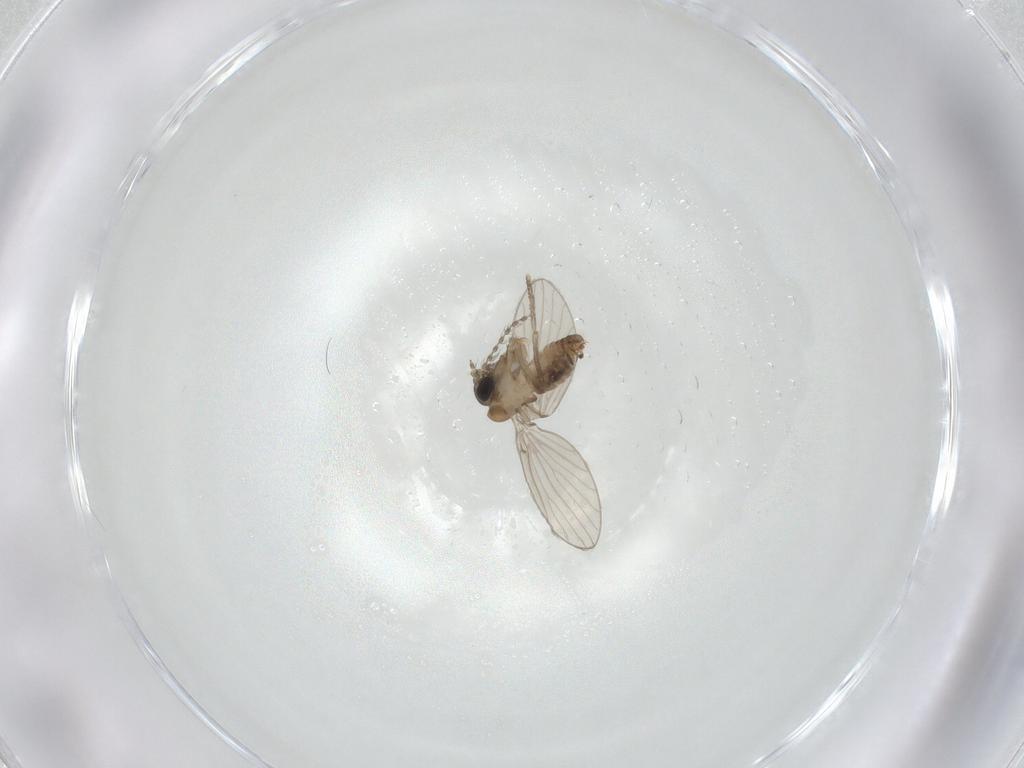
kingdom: Animalia
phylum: Arthropoda
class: Insecta
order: Diptera
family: Psychodidae
